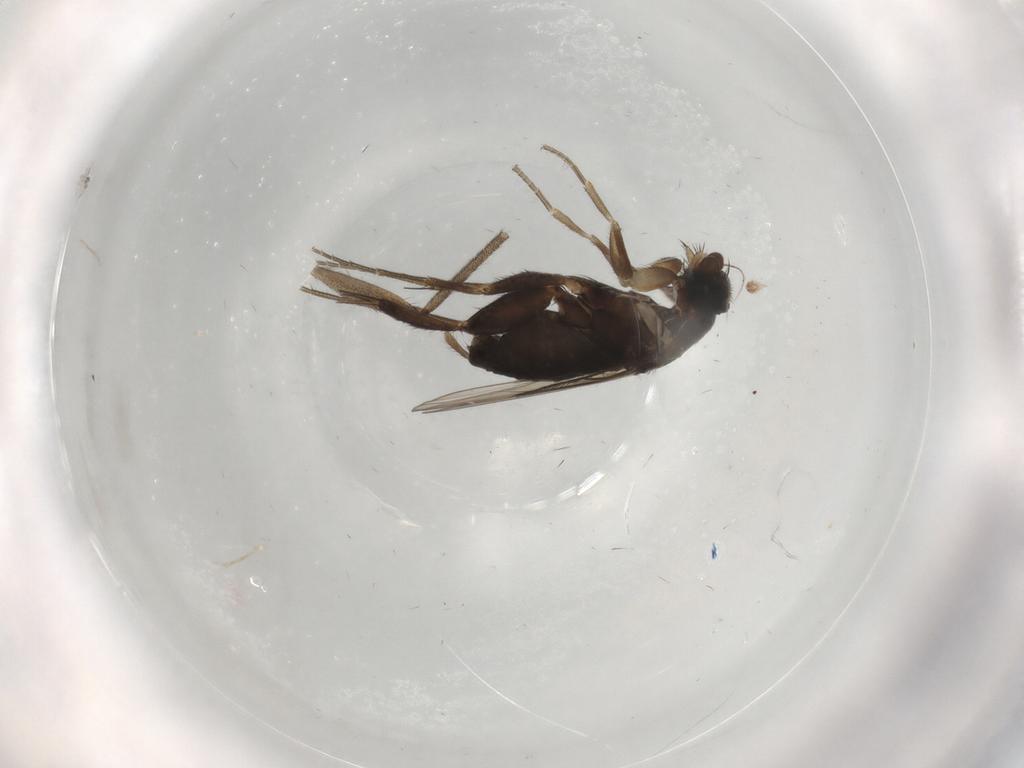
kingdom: Animalia
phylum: Arthropoda
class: Insecta
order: Diptera
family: Phoridae
